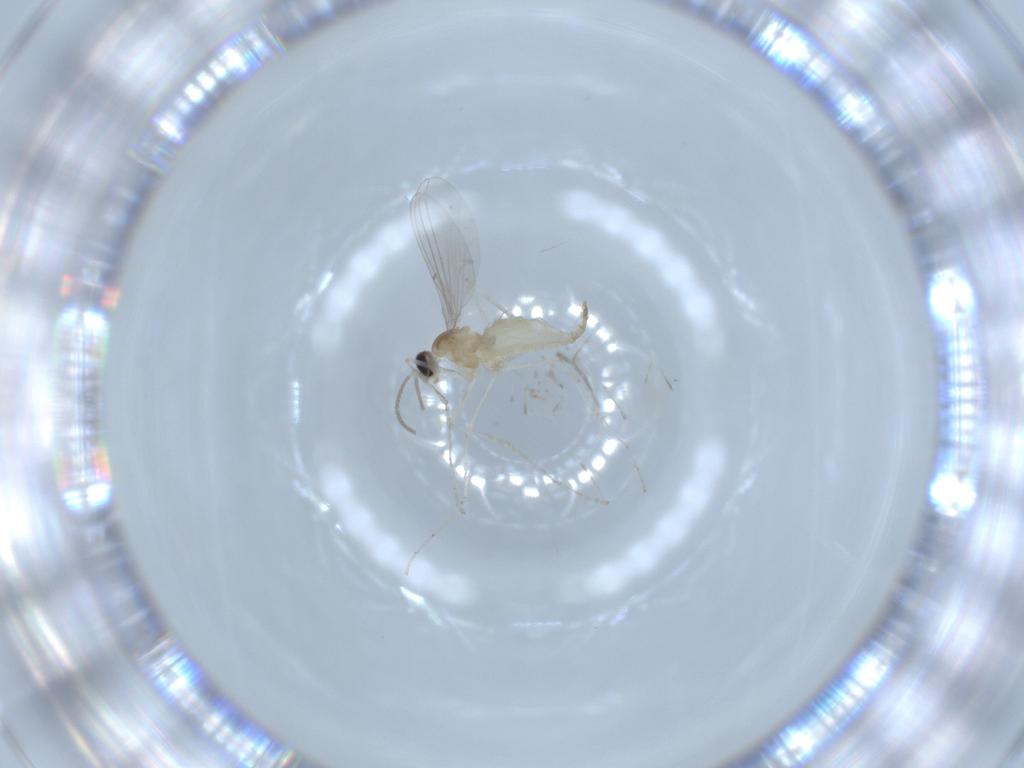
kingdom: Animalia
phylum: Arthropoda
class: Insecta
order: Diptera
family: Cecidomyiidae
